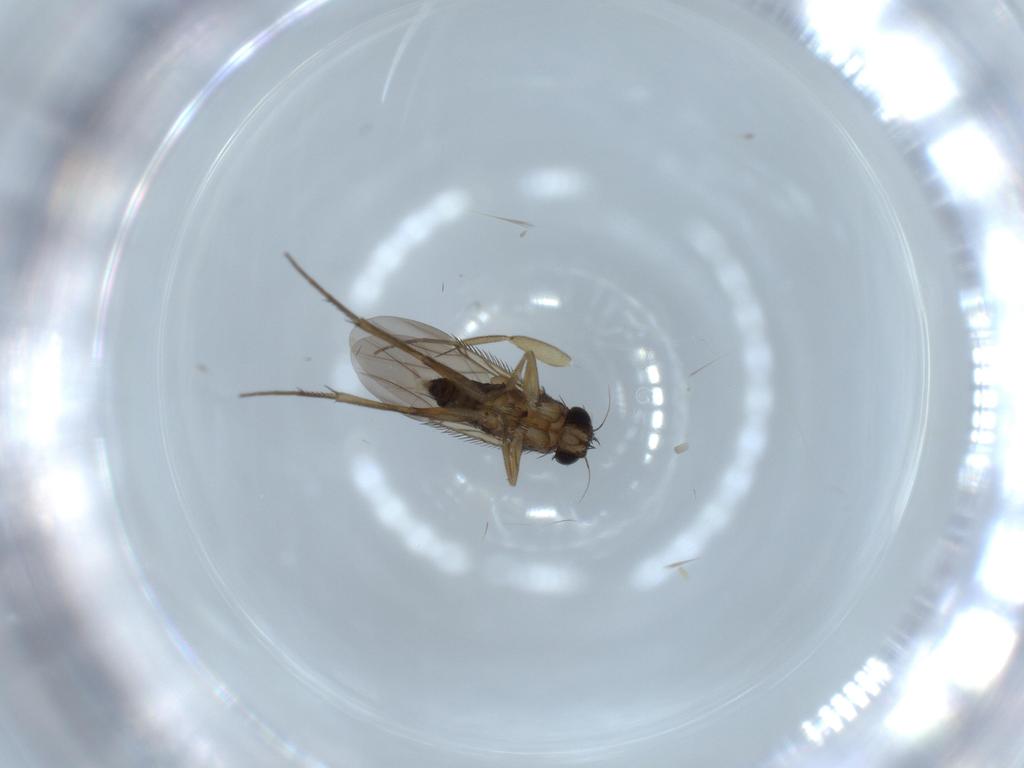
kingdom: Animalia
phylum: Arthropoda
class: Insecta
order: Diptera
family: Phoridae
